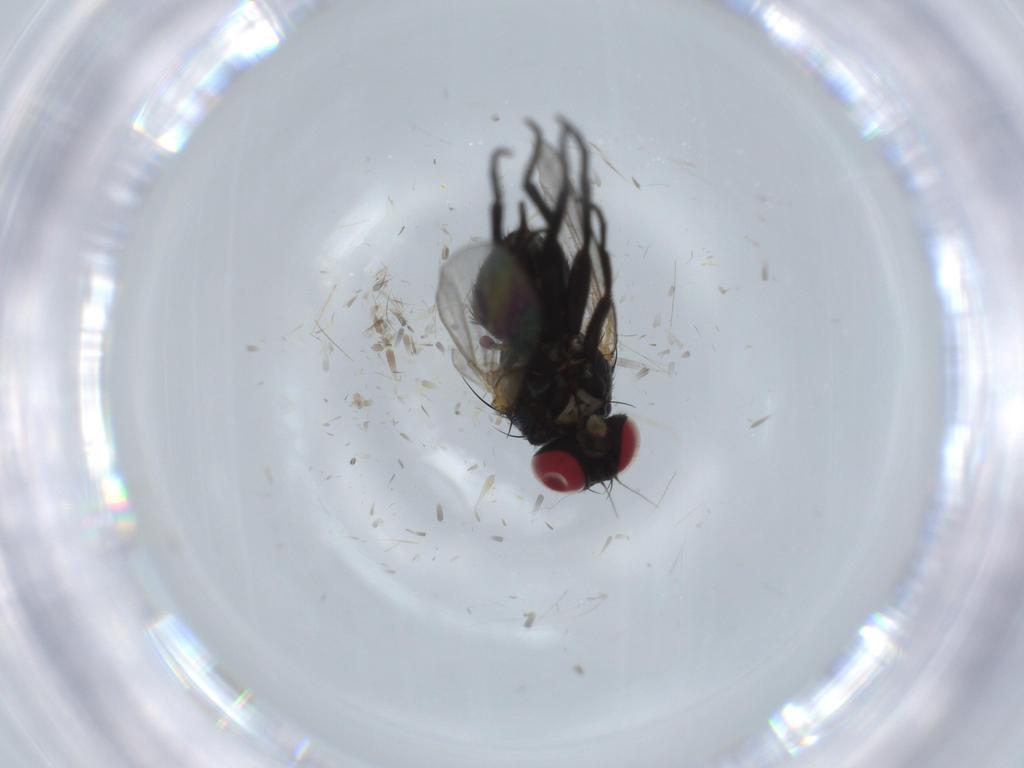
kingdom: Animalia
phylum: Arthropoda
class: Insecta
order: Diptera
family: Agromyzidae
